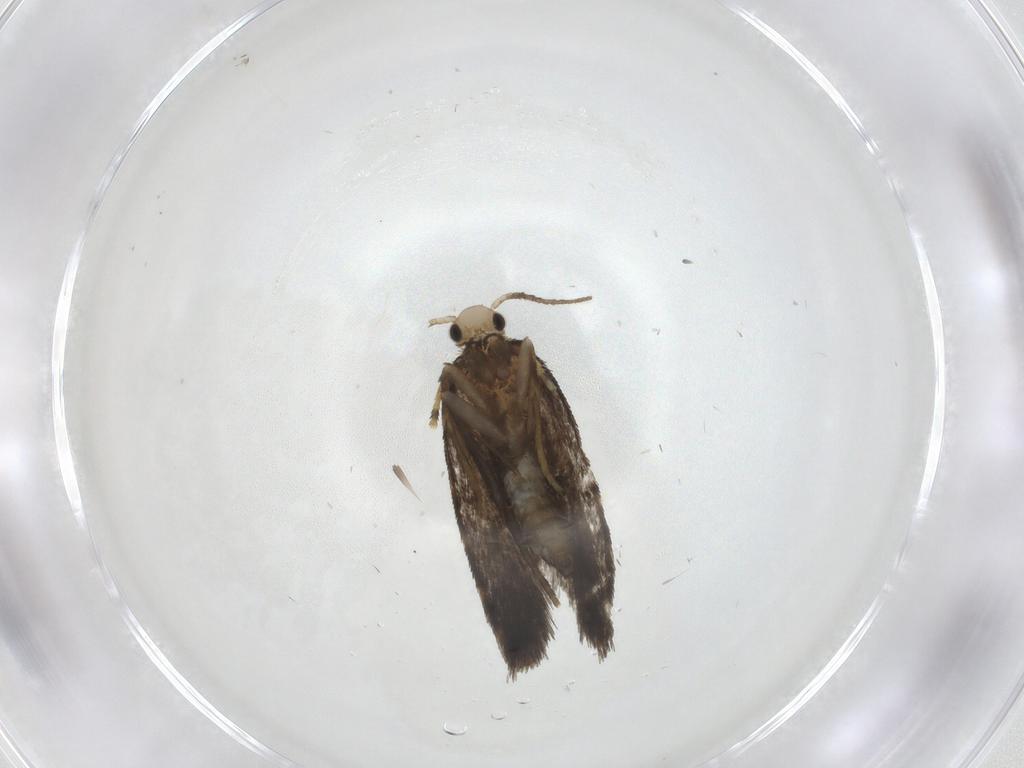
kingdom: Animalia
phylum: Arthropoda
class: Insecta
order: Lepidoptera
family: Psychidae
